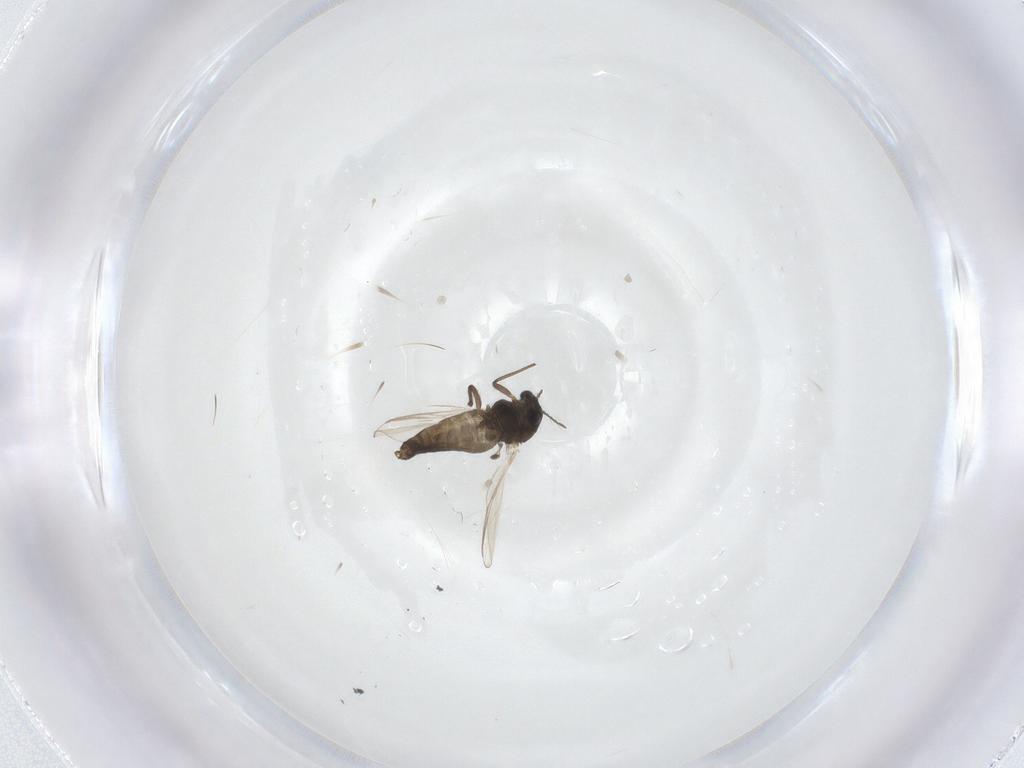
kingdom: Animalia
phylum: Arthropoda
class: Insecta
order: Diptera
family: Chironomidae
